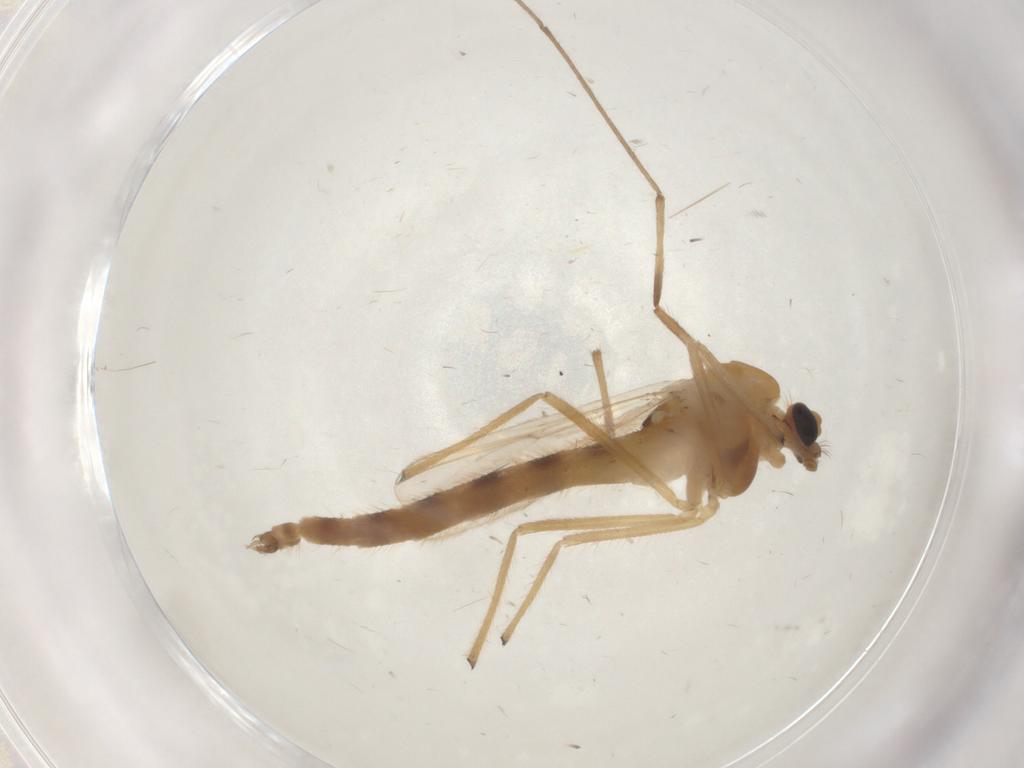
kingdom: Animalia
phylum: Arthropoda
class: Insecta
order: Diptera
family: Chironomidae
